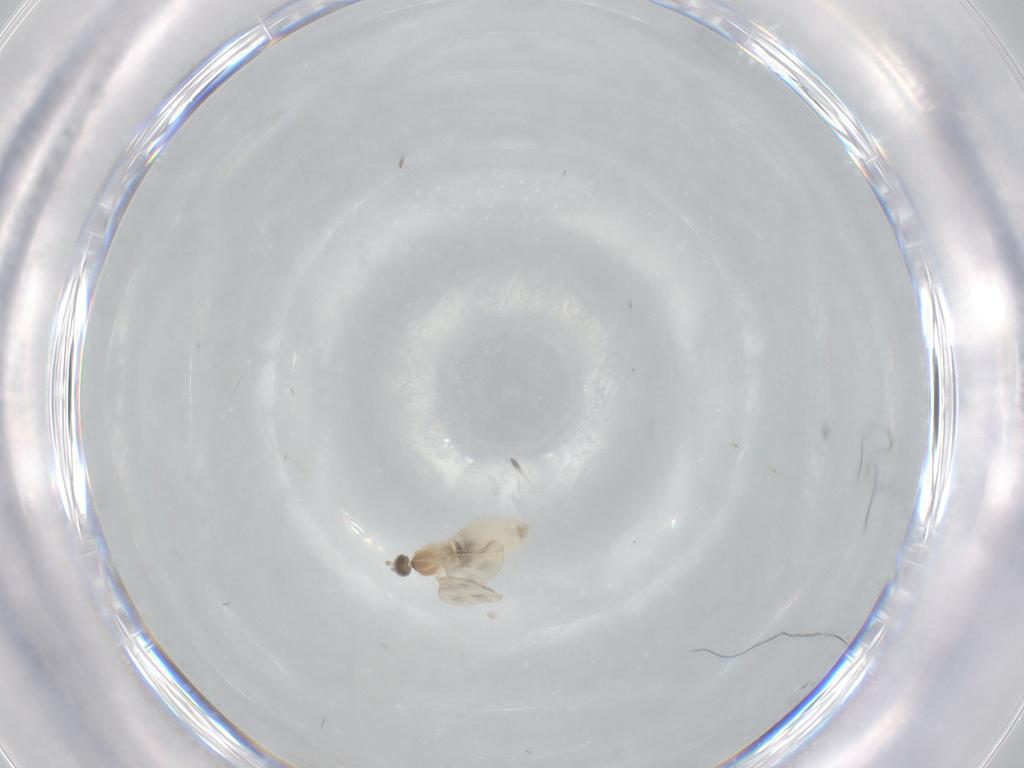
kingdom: Animalia
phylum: Arthropoda
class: Insecta
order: Diptera
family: Cecidomyiidae
